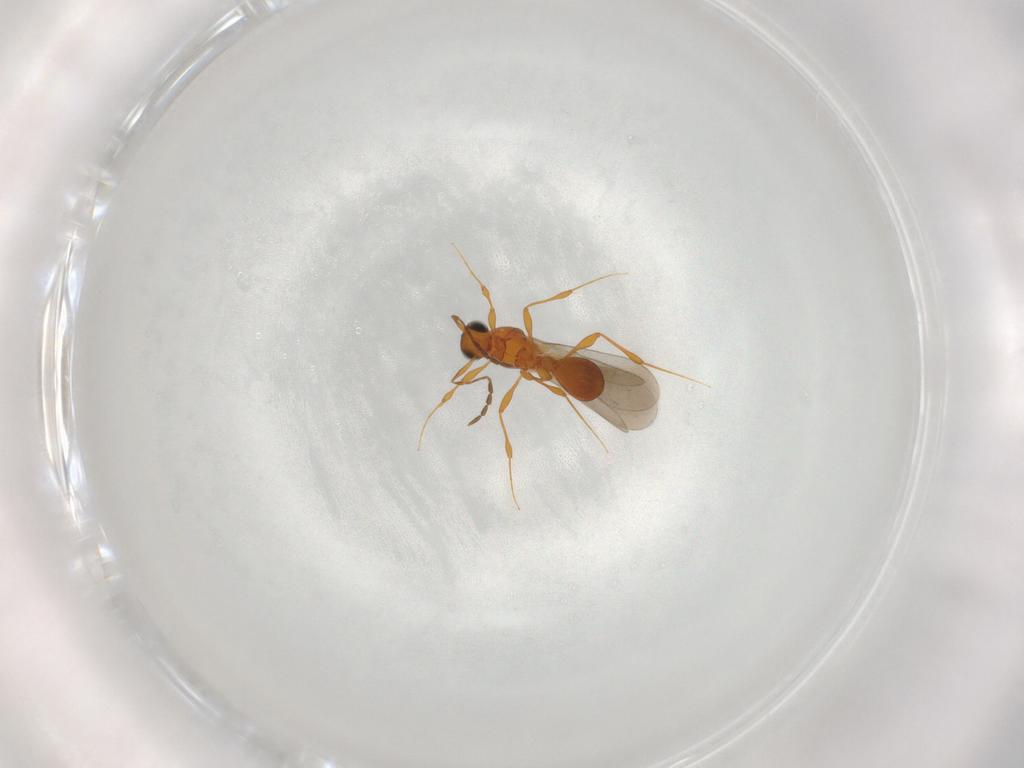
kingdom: Animalia
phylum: Arthropoda
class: Insecta
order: Hymenoptera
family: Platygastridae
